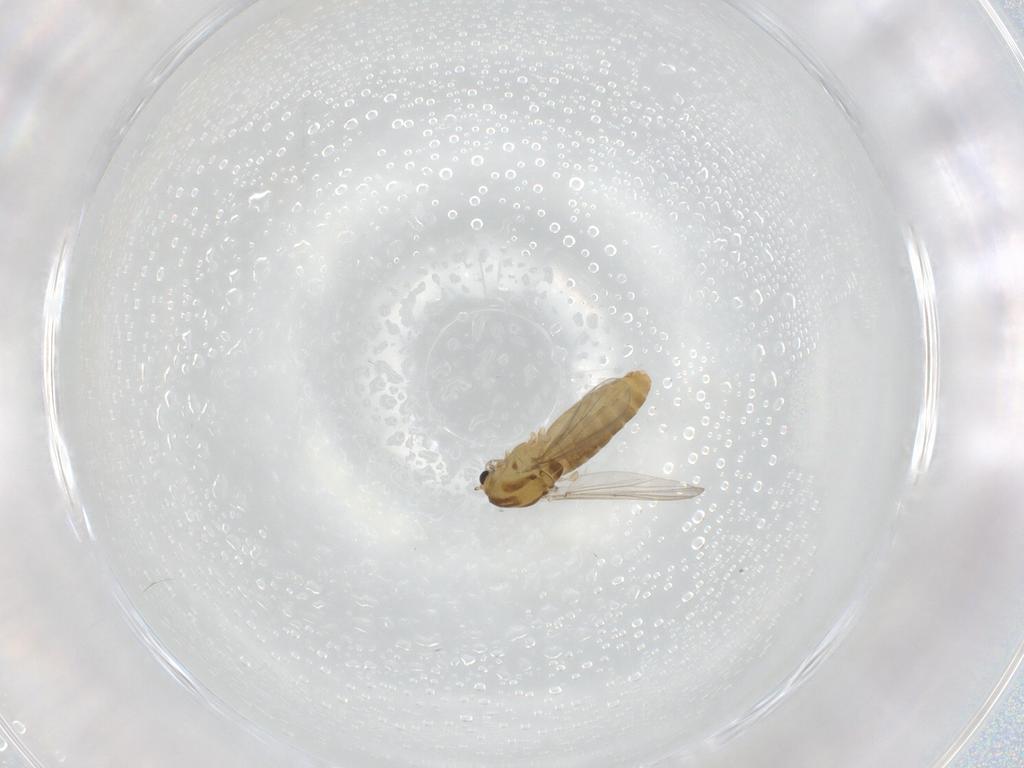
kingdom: Animalia
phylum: Arthropoda
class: Insecta
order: Diptera
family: Chironomidae
